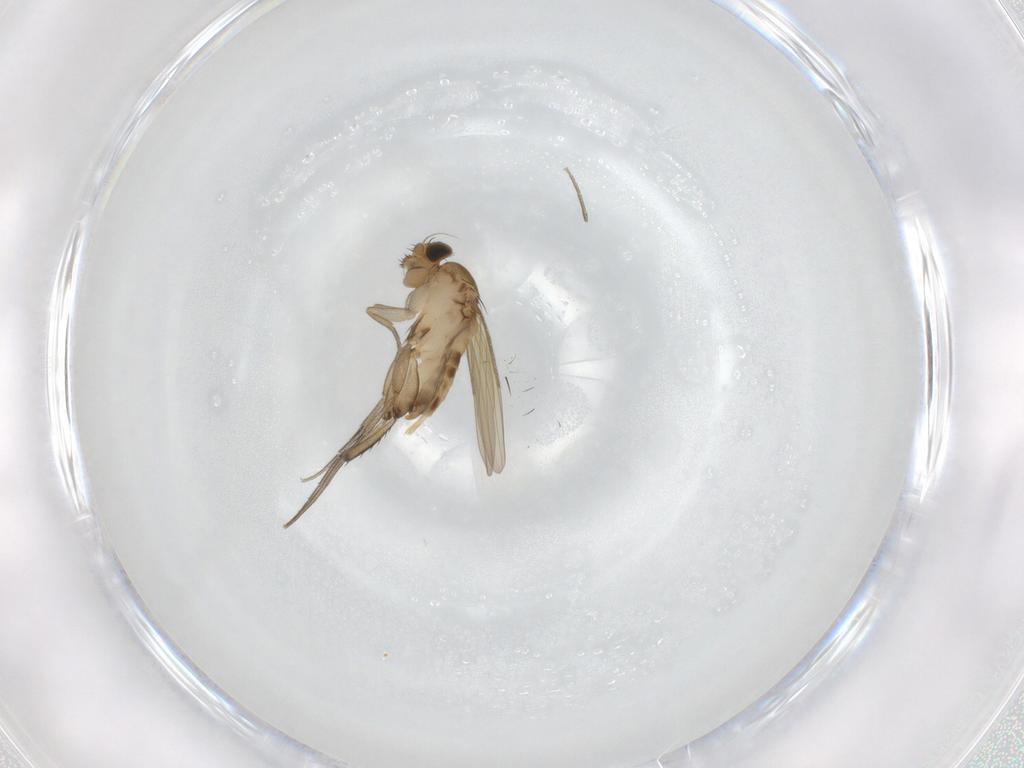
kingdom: Animalia
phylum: Arthropoda
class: Insecta
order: Diptera
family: Phoridae
